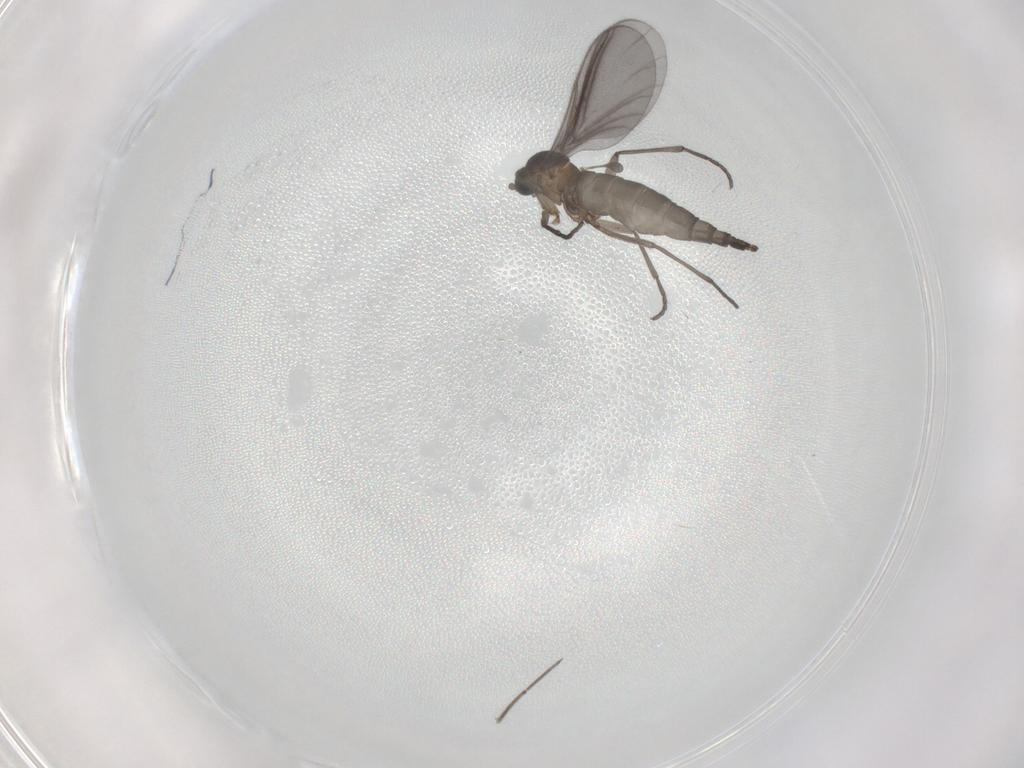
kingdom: Animalia
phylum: Arthropoda
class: Insecta
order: Diptera
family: Sciaridae
